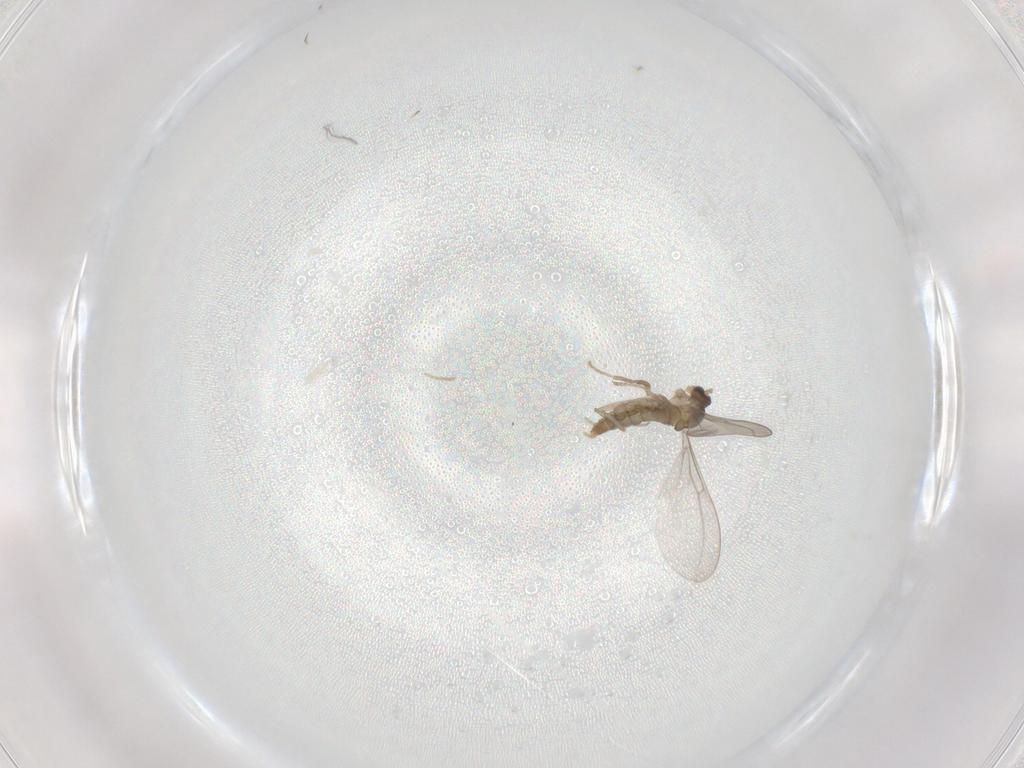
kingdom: Animalia
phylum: Arthropoda
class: Insecta
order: Diptera
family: Cecidomyiidae
